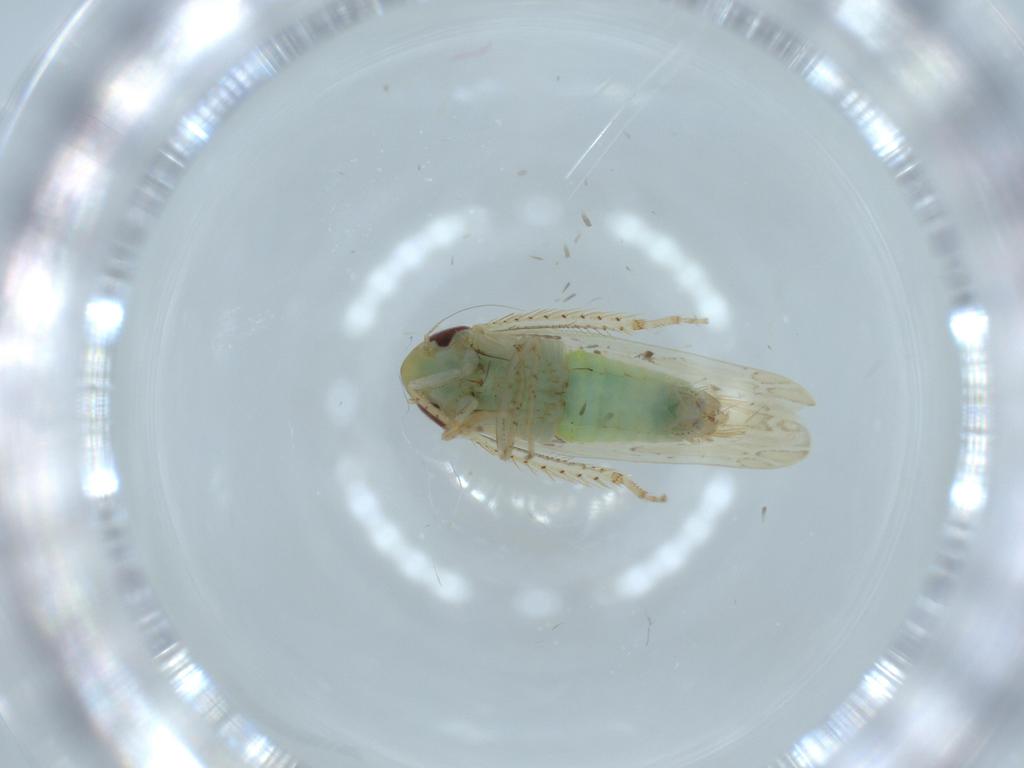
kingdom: Animalia
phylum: Arthropoda
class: Insecta
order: Hemiptera
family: Cicadellidae
